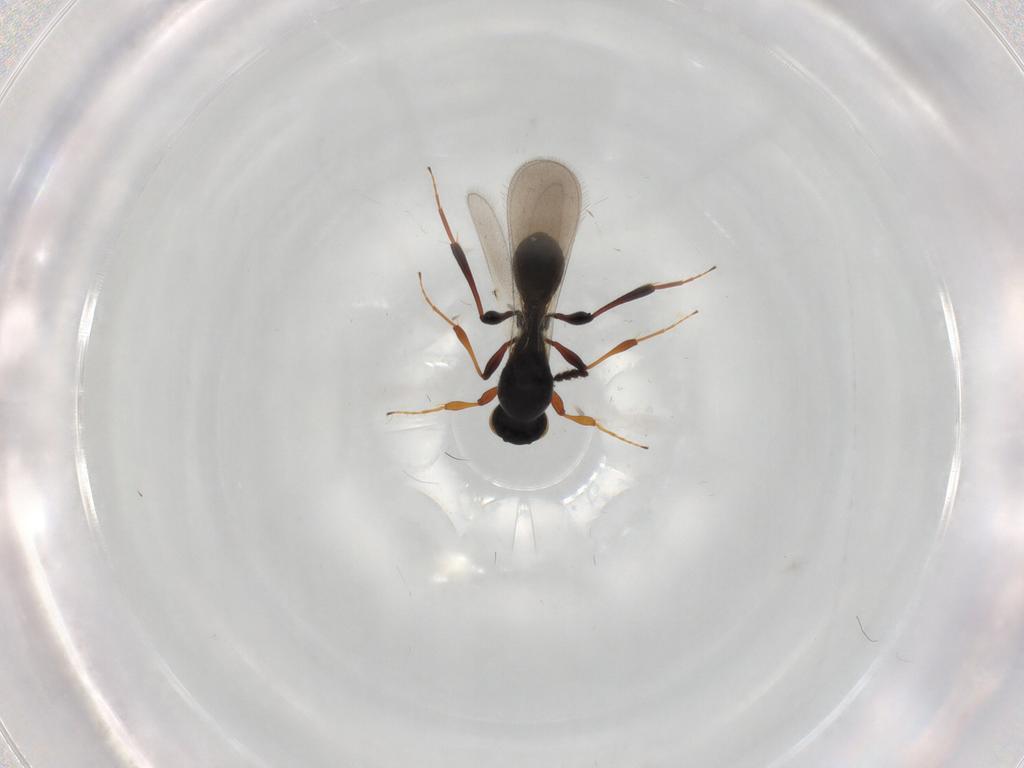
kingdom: Animalia
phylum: Arthropoda
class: Insecta
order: Hymenoptera
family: Platygastridae
